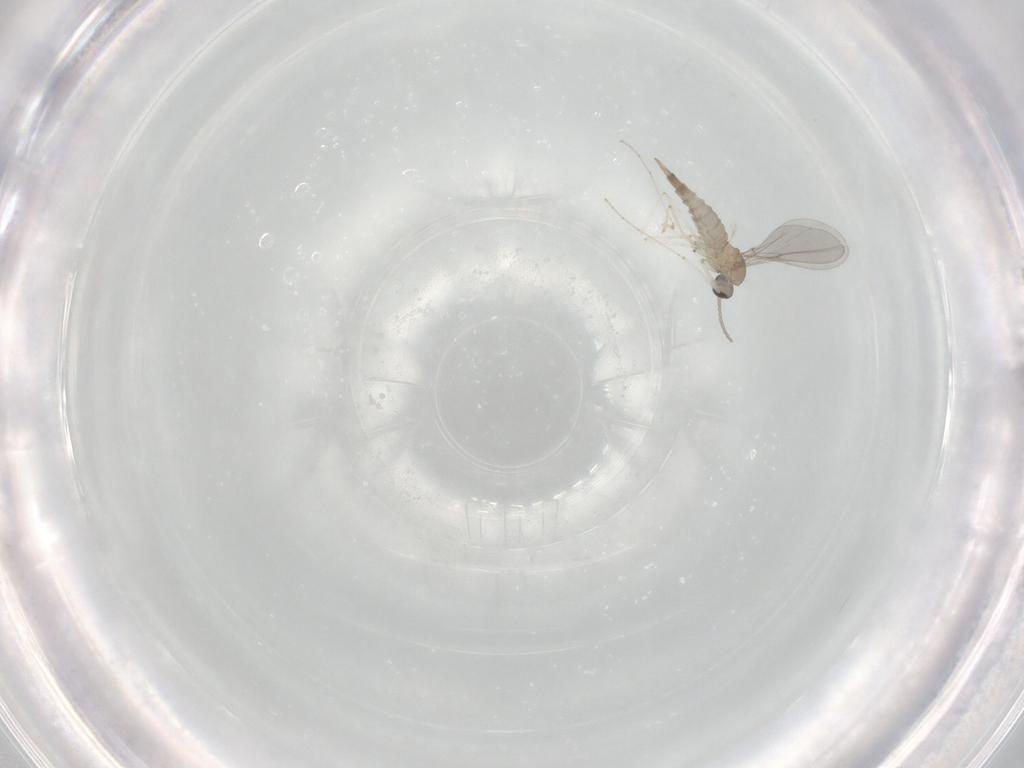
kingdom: Animalia
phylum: Arthropoda
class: Insecta
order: Diptera
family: Cecidomyiidae
